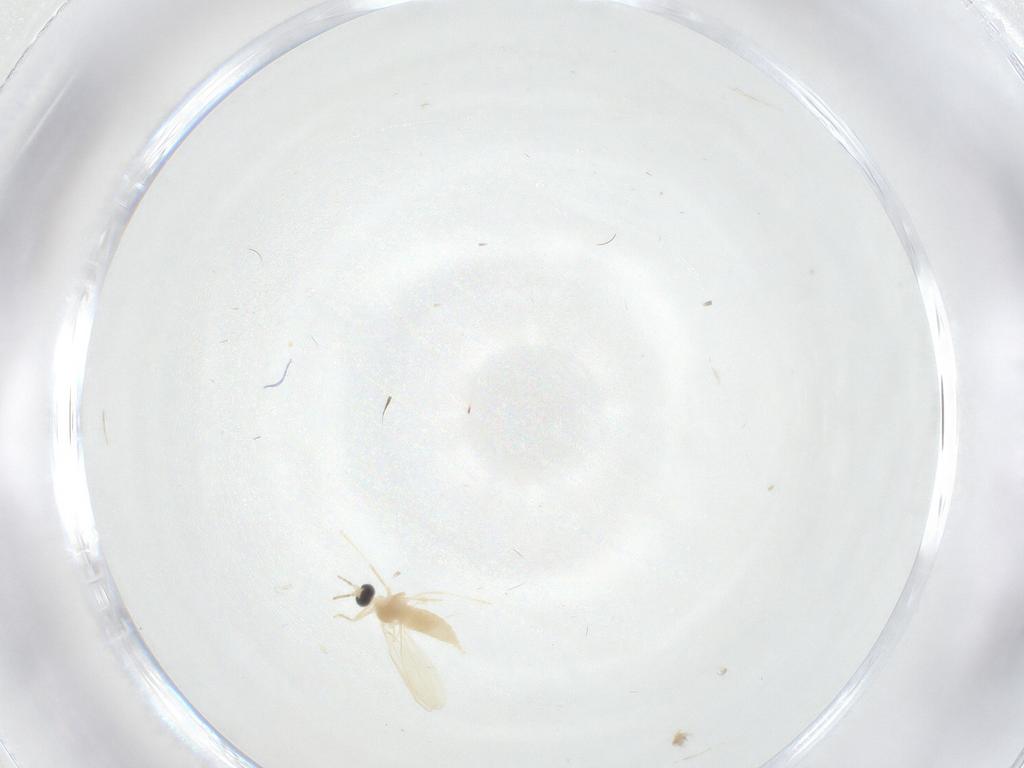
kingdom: Animalia
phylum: Arthropoda
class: Insecta
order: Diptera
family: Cecidomyiidae
